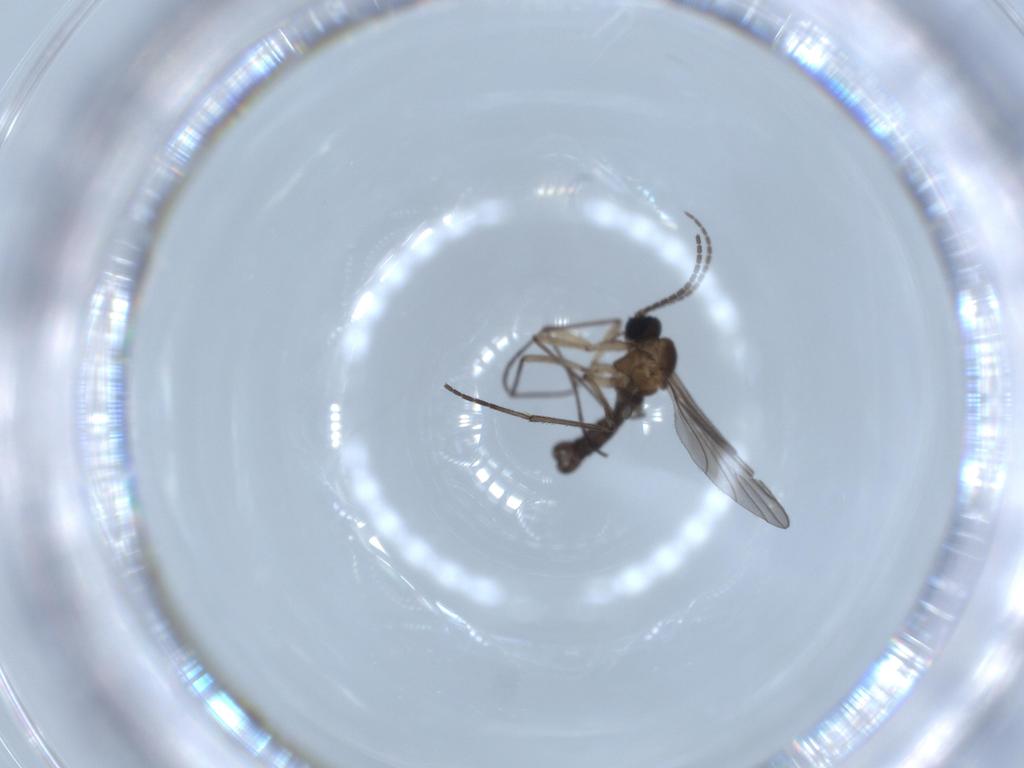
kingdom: Animalia
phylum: Arthropoda
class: Insecta
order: Diptera
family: Sciaridae
